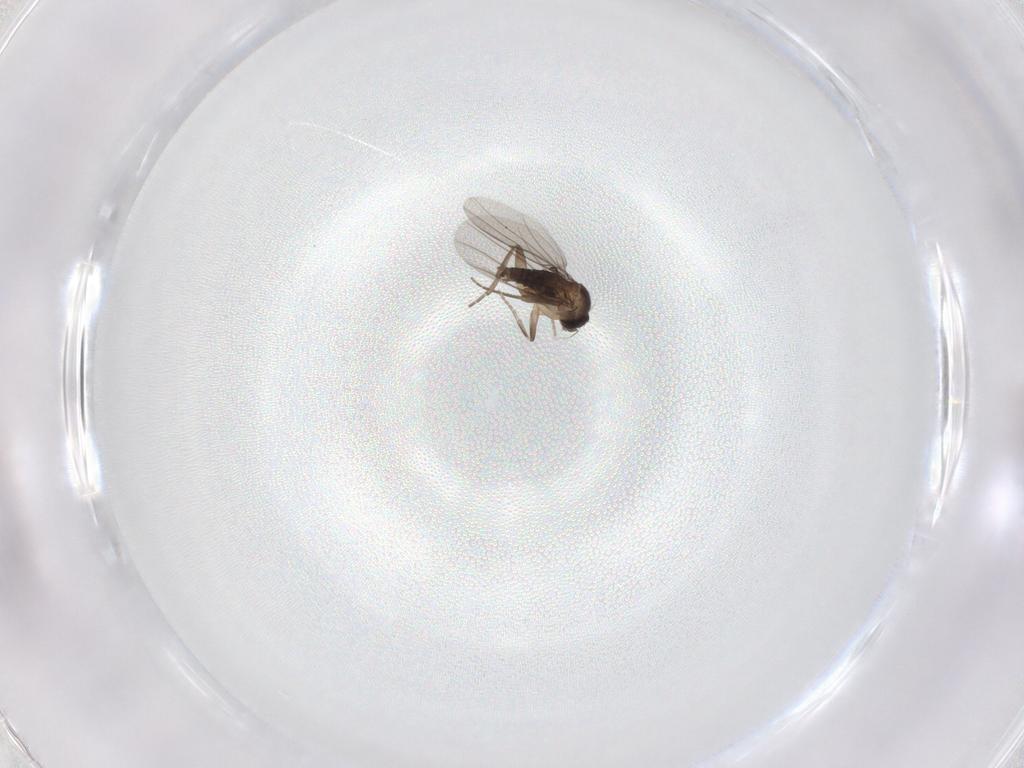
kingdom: Animalia
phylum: Arthropoda
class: Insecta
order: Diptera
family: Phoridae
